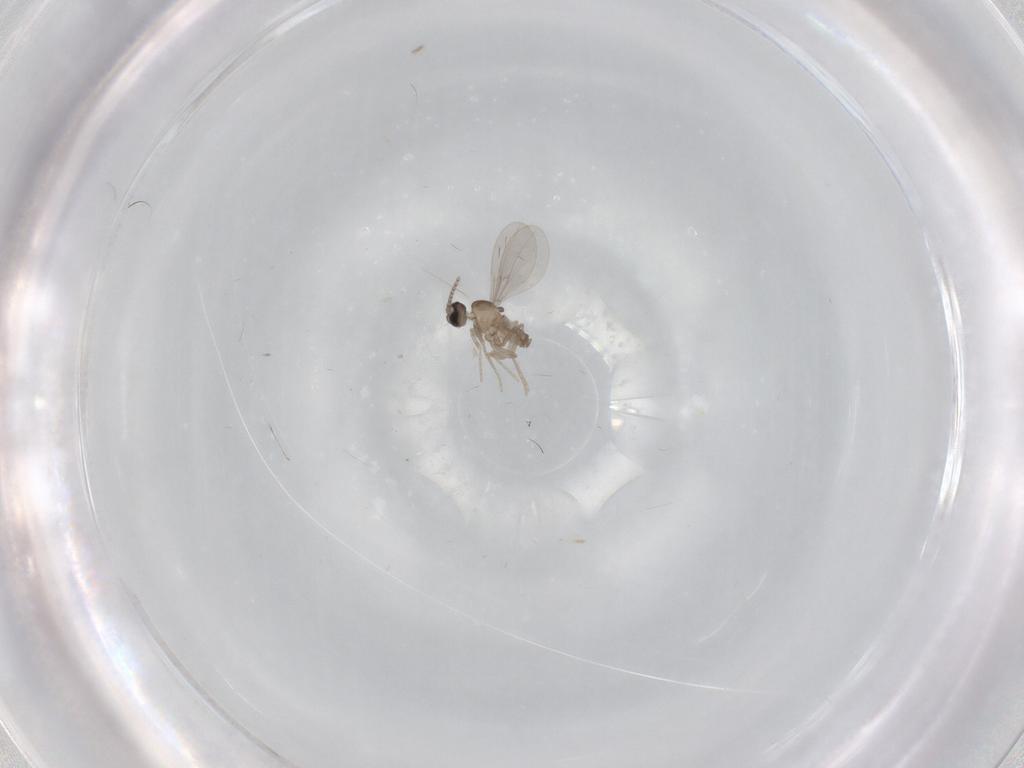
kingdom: Animalia
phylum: Arthropoda
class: Insecta
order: Diptera
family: Cecidomyiidae
